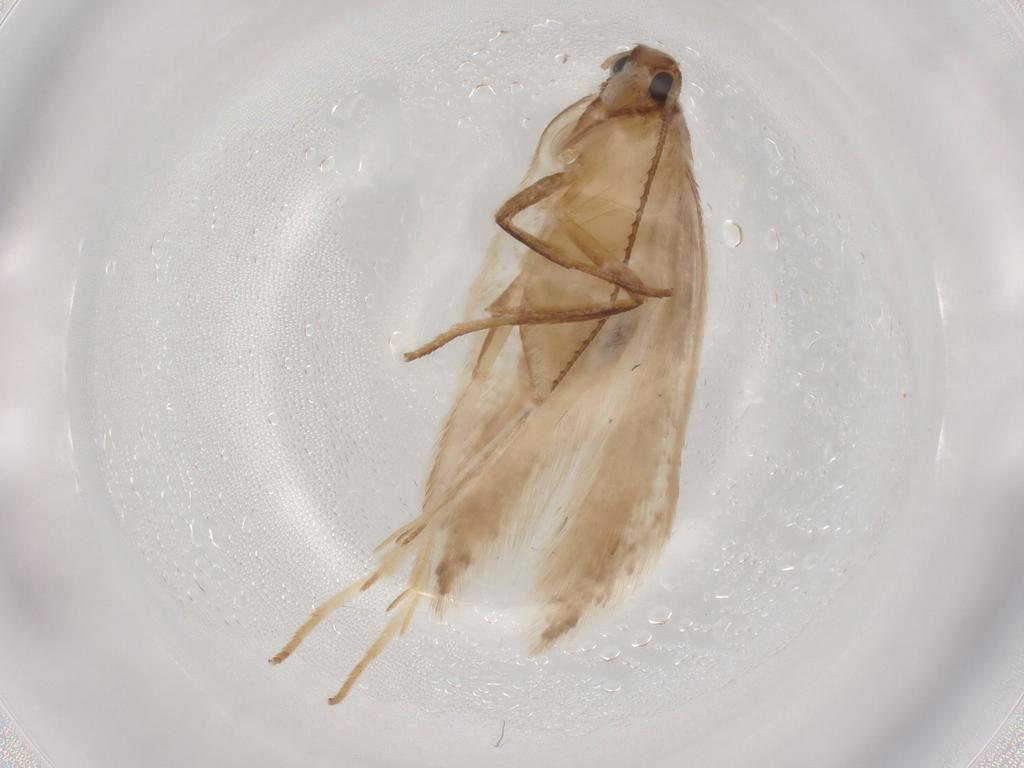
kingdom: Animalia
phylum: Arthropoda
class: Insecta
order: Lepidoptera
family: Gelechiidae
